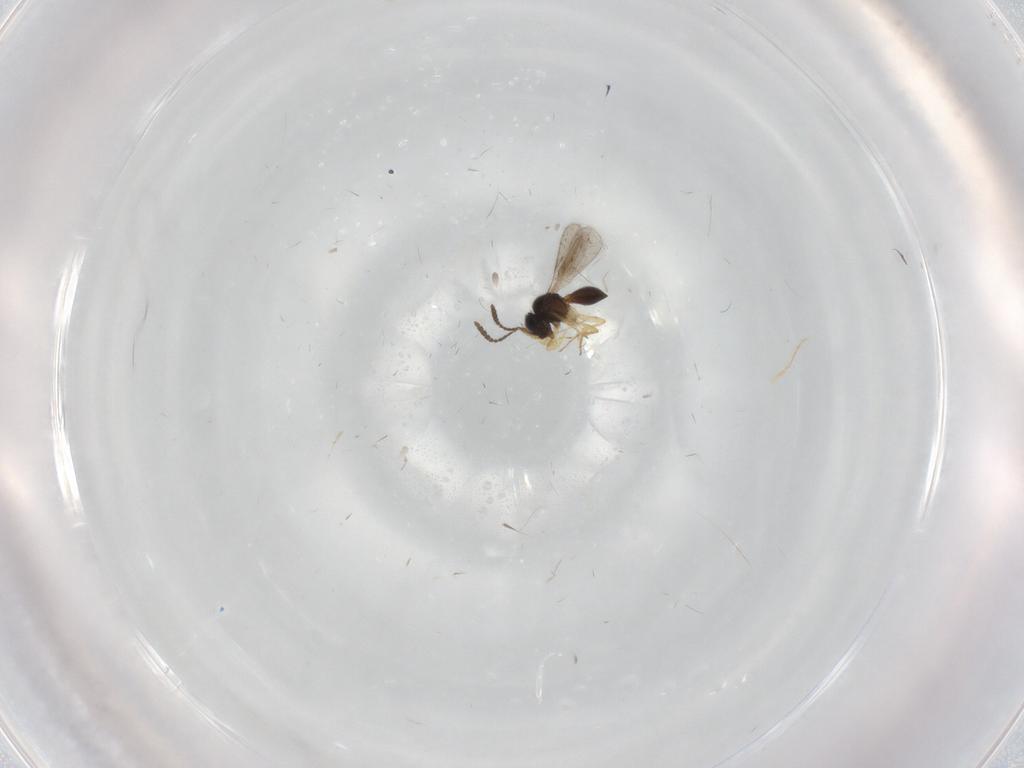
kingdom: Animalia
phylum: Arthropoda
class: Insecta
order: Hymenoptera
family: Scelionidae
